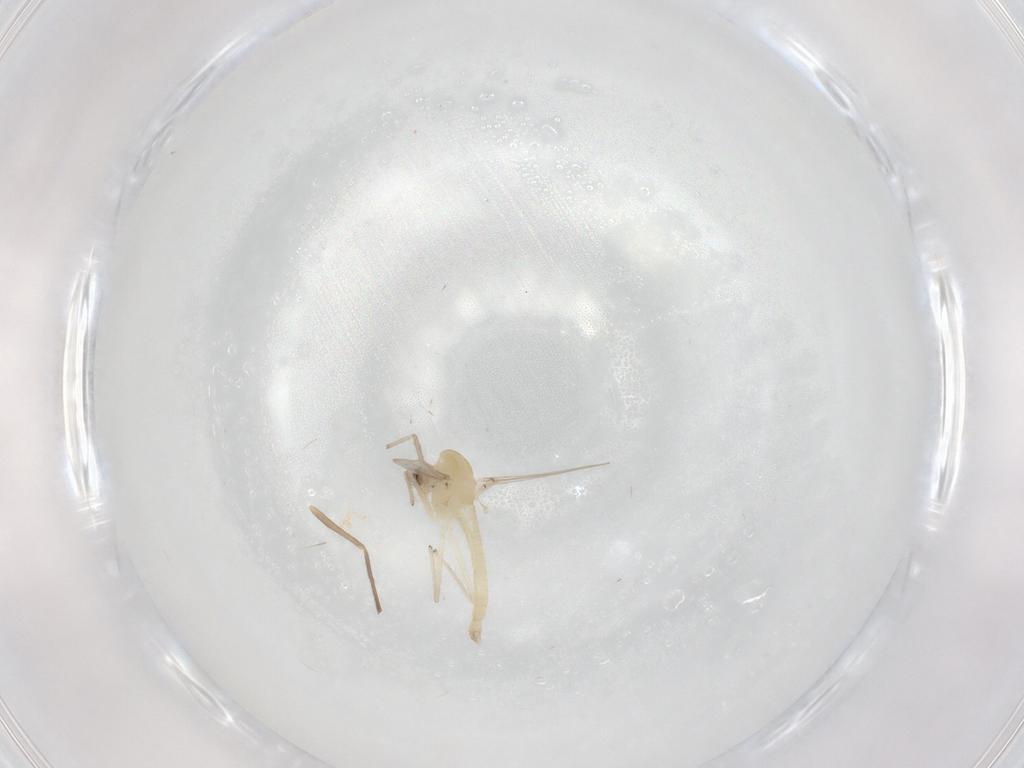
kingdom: Animalia
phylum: Arthropoda
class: Insecta
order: Diptera
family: Chironomidae
